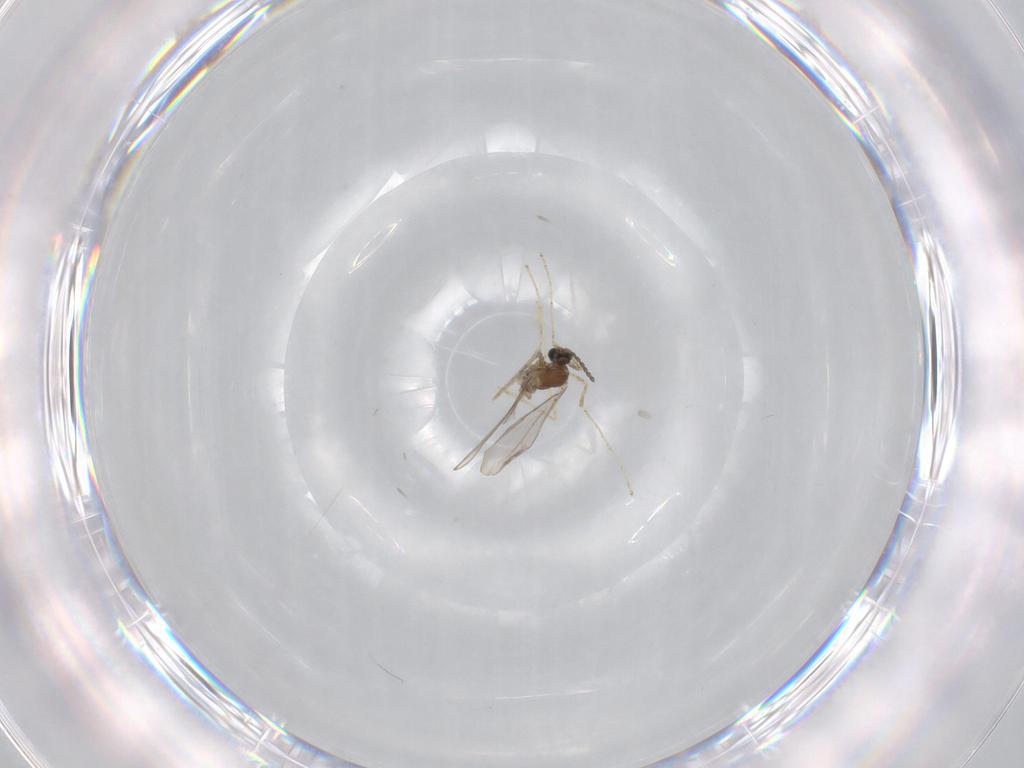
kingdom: Animalia
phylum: Arthropoda
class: Insecta
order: Diptera
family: Cecidomyiidae
